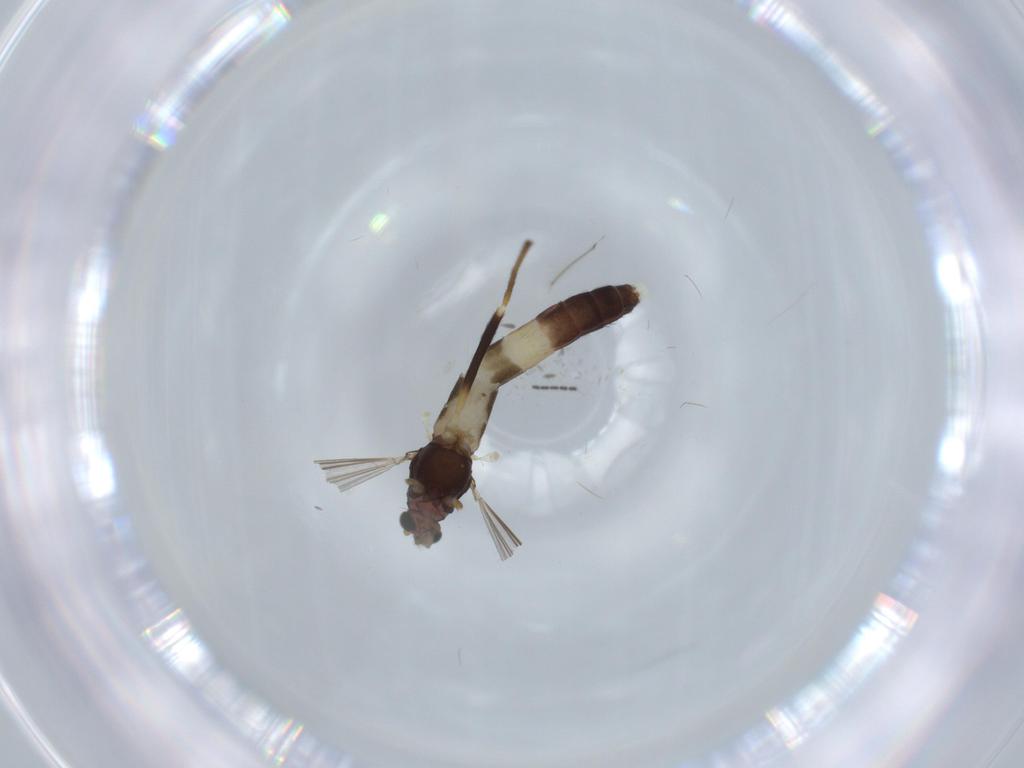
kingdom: Animalia
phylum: Arthropoda
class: Insecta
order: Diptera
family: Chironomidae
